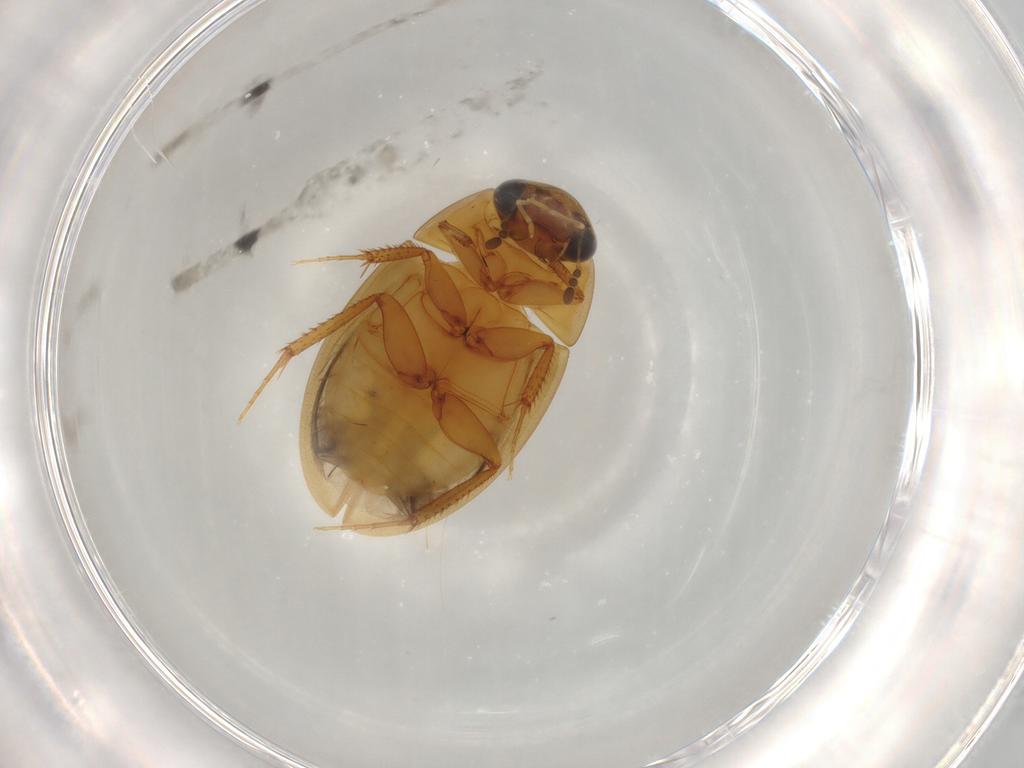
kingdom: Animalia
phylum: Arthropoda
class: Insecta
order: Coleoptera
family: Hydrophilidae
